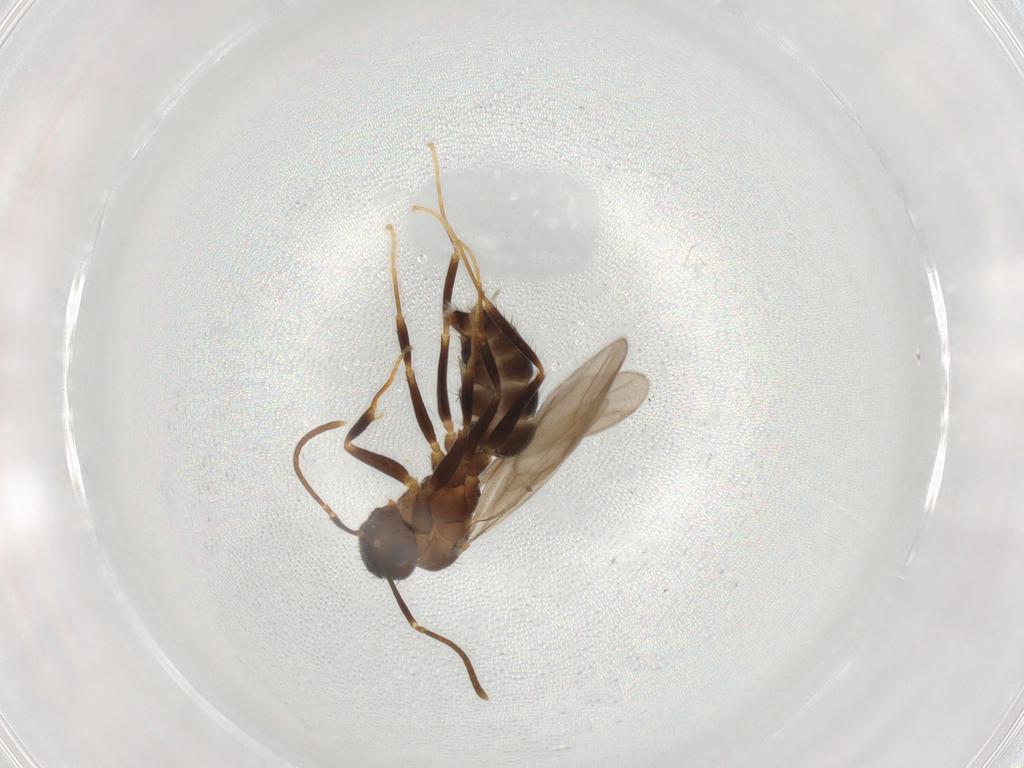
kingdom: Animalia
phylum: Arthropoda
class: Insecta
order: Hymenoptera
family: Formicidae
